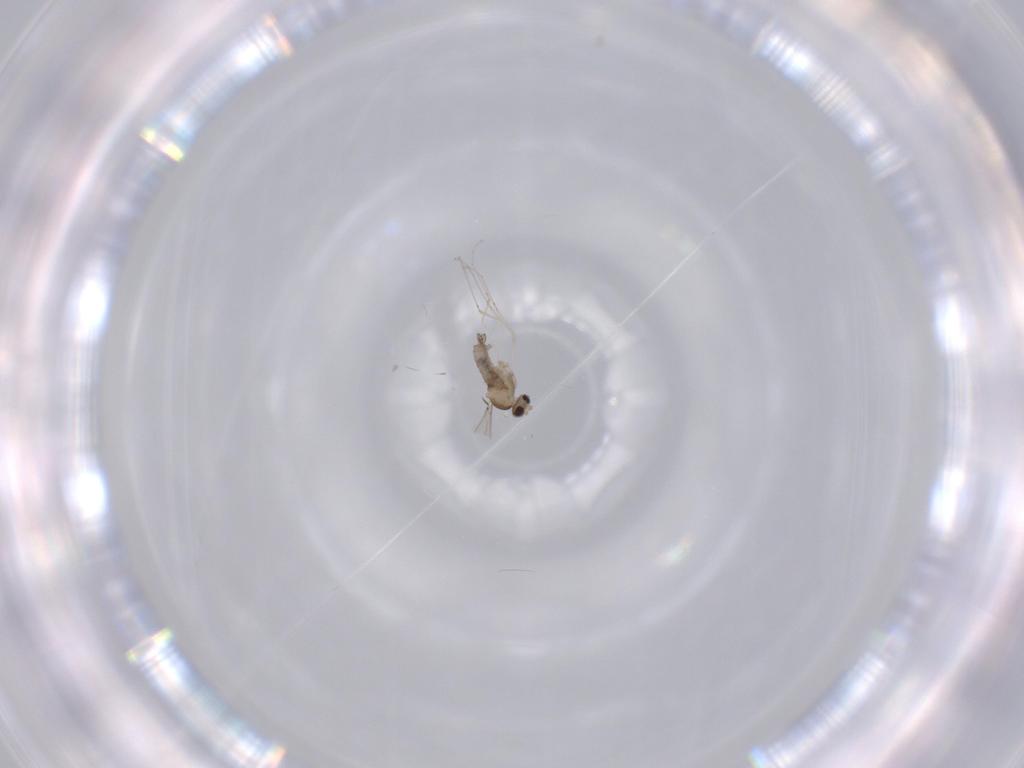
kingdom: Animalia
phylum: Arthropoda
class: Insecta
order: Diptera
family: Cecidomyiidae
